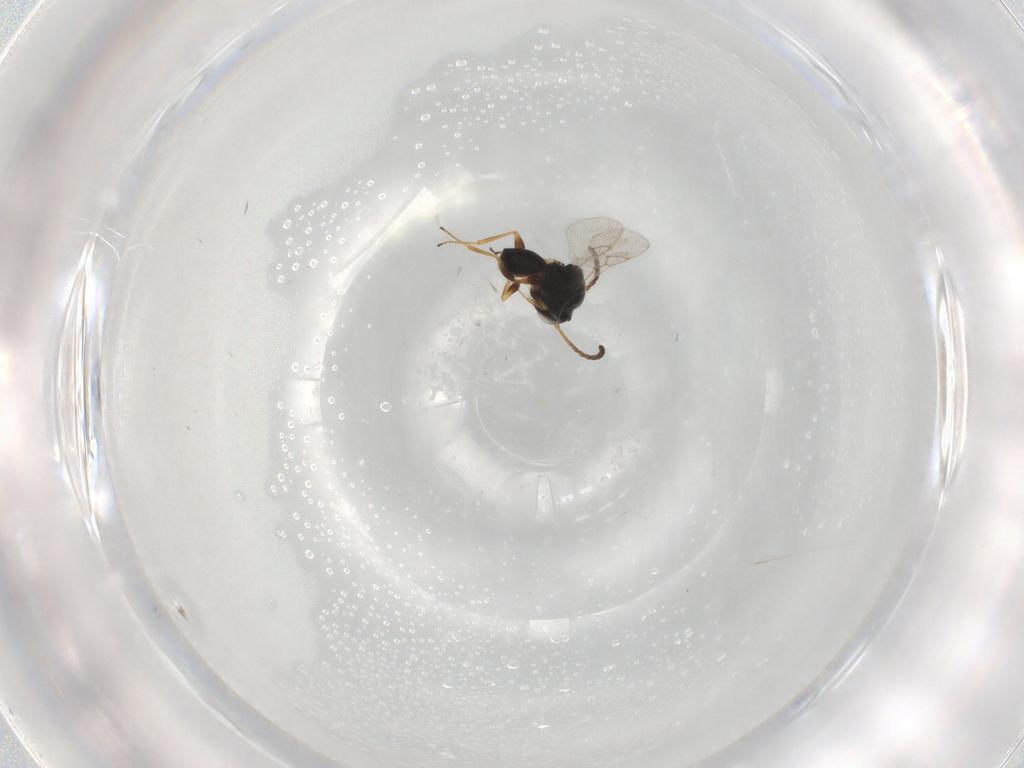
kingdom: Animalia
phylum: Arthropoda
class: Insecta
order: Hymenoptera
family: Figitidae
